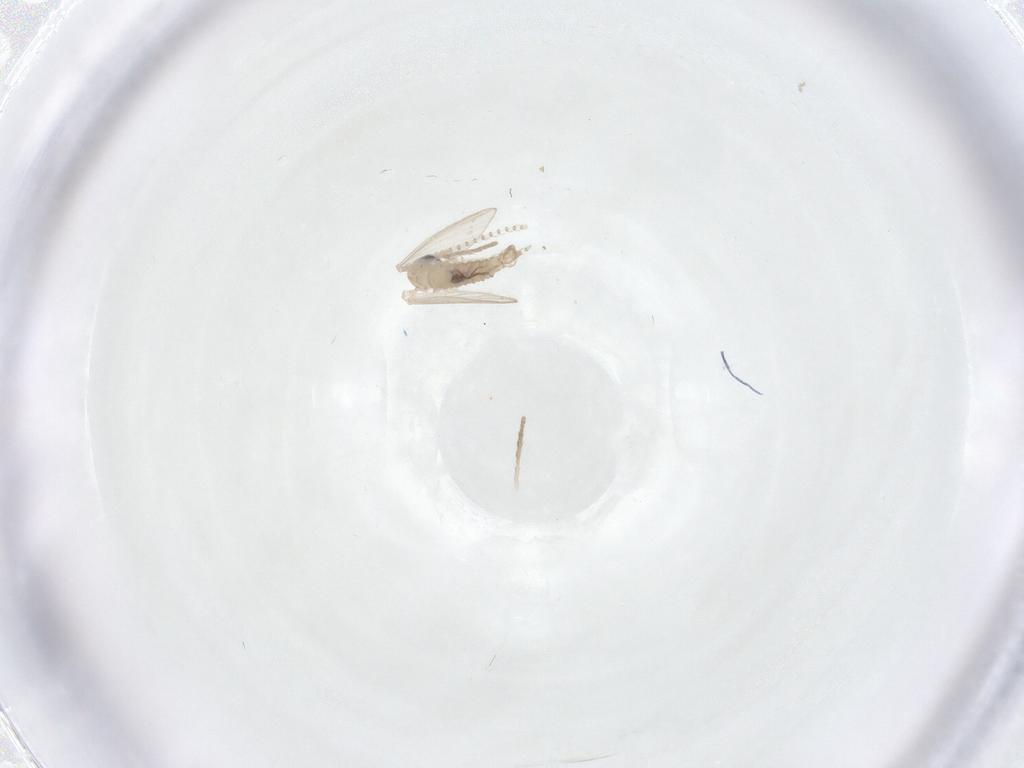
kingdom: Animalia
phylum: Arthropoda
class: Insecta
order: Diptera
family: Psychodidae
